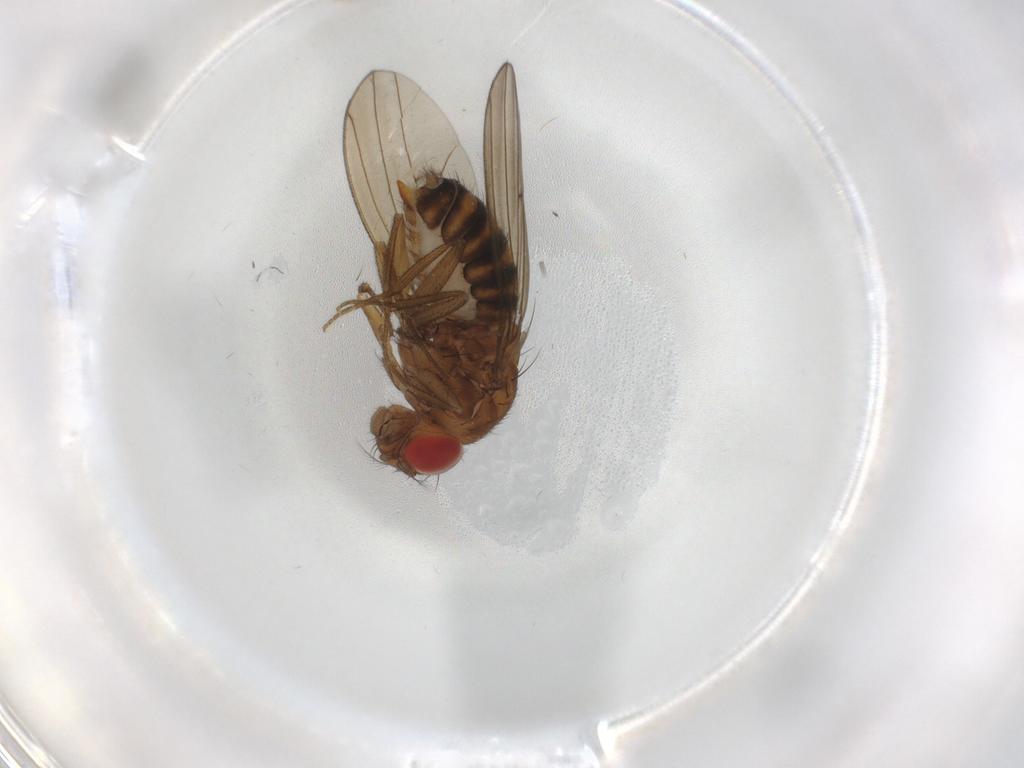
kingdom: Animalia
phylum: Arthropoda
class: Insecta
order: Diptera
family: Drosophilidae
